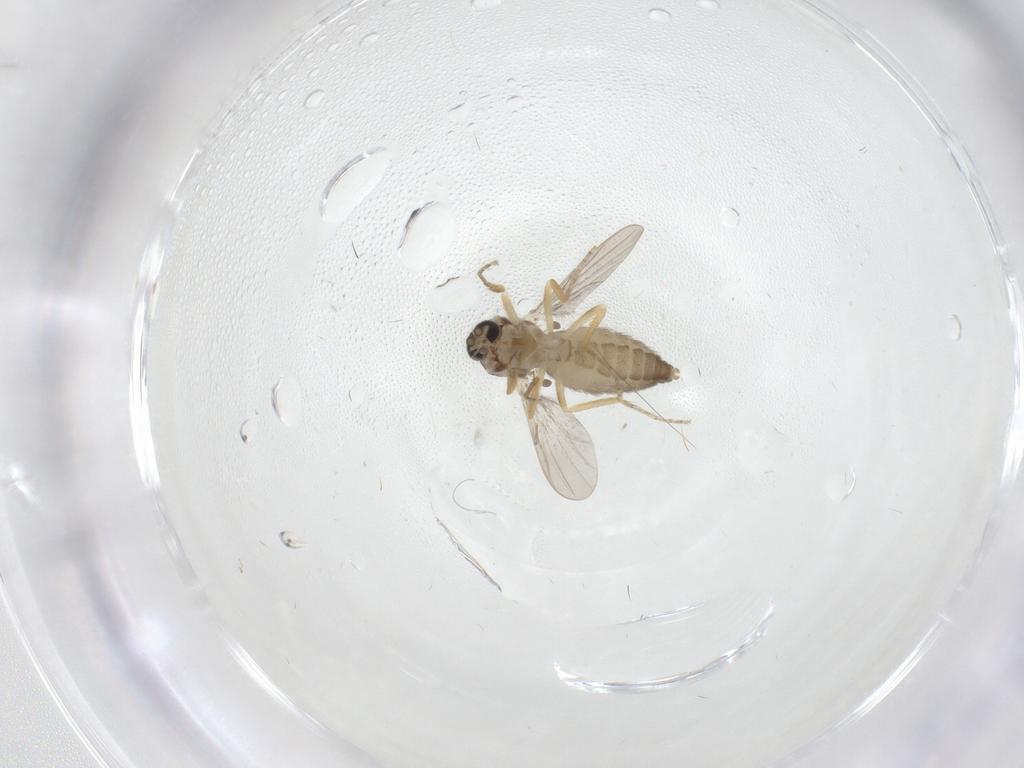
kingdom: Animalia
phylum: Arthropoda
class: Insecta
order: Diptera
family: Ceratopogonidae
